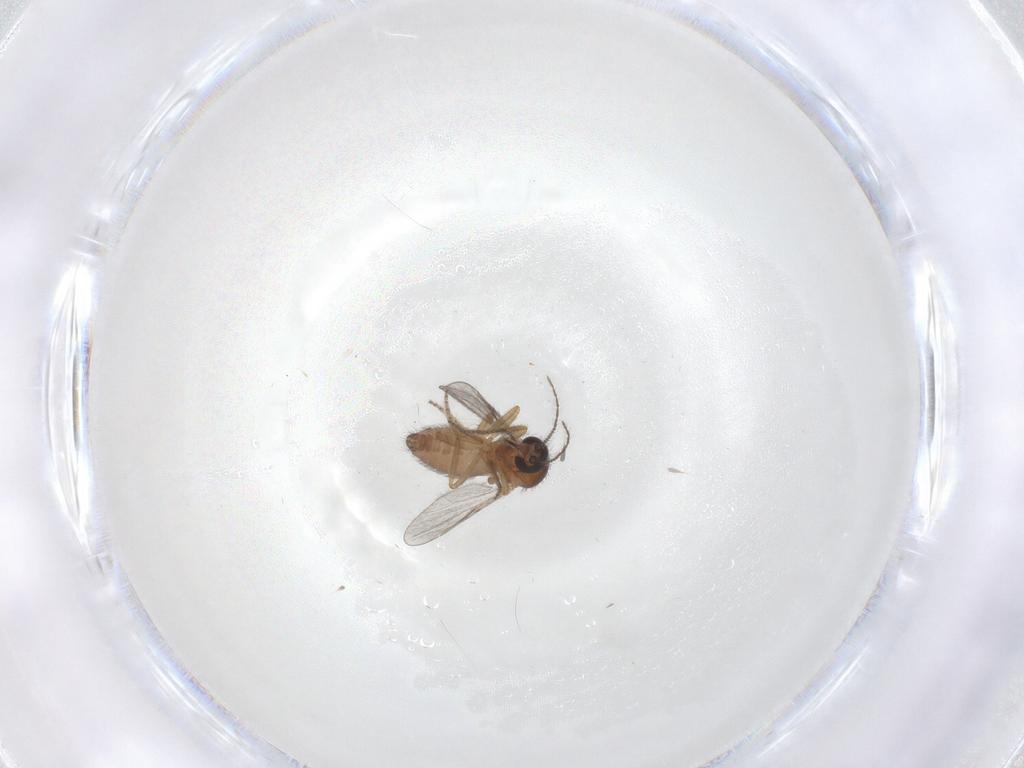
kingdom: Animalia
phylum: Arthropoda
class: Insecta
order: Diptera
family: Ceratopogonidae
